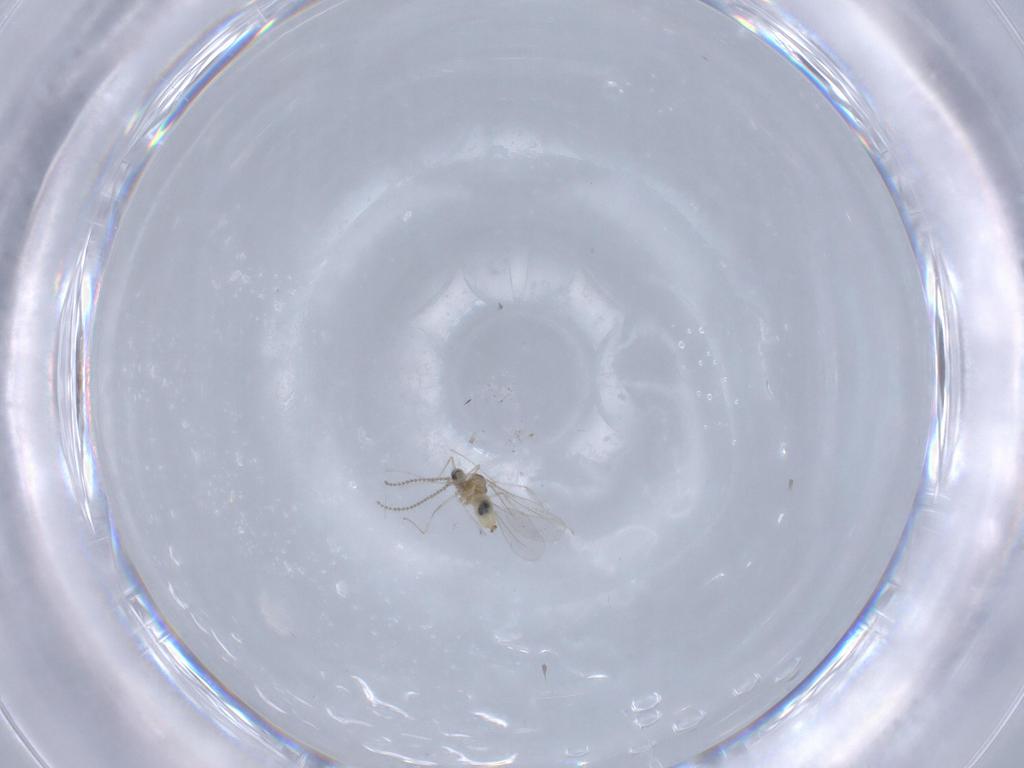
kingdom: Animalia
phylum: Arthropoda
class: Insecta
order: Diptera
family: Cecidomyiidae
